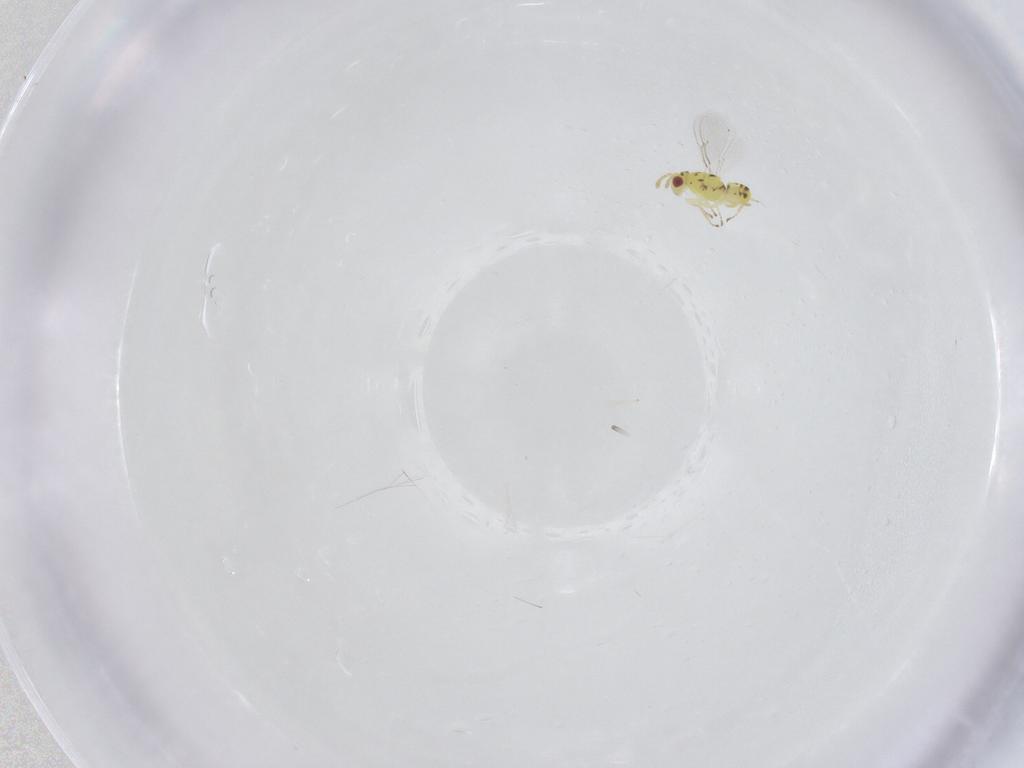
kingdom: Animalia
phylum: Arthropoda
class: Insecta
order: Hymenoptera
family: Eulophidae
